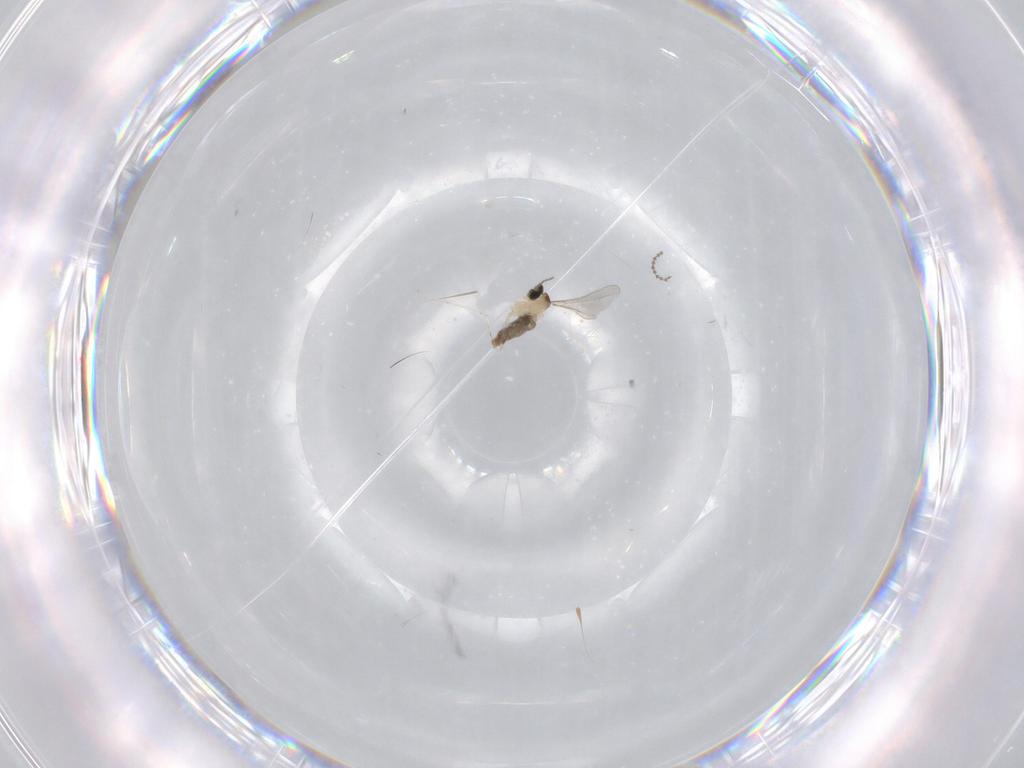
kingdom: Animalia
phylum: Arthropoda
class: Insecta
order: Diptera
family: Cecidomyiidae
